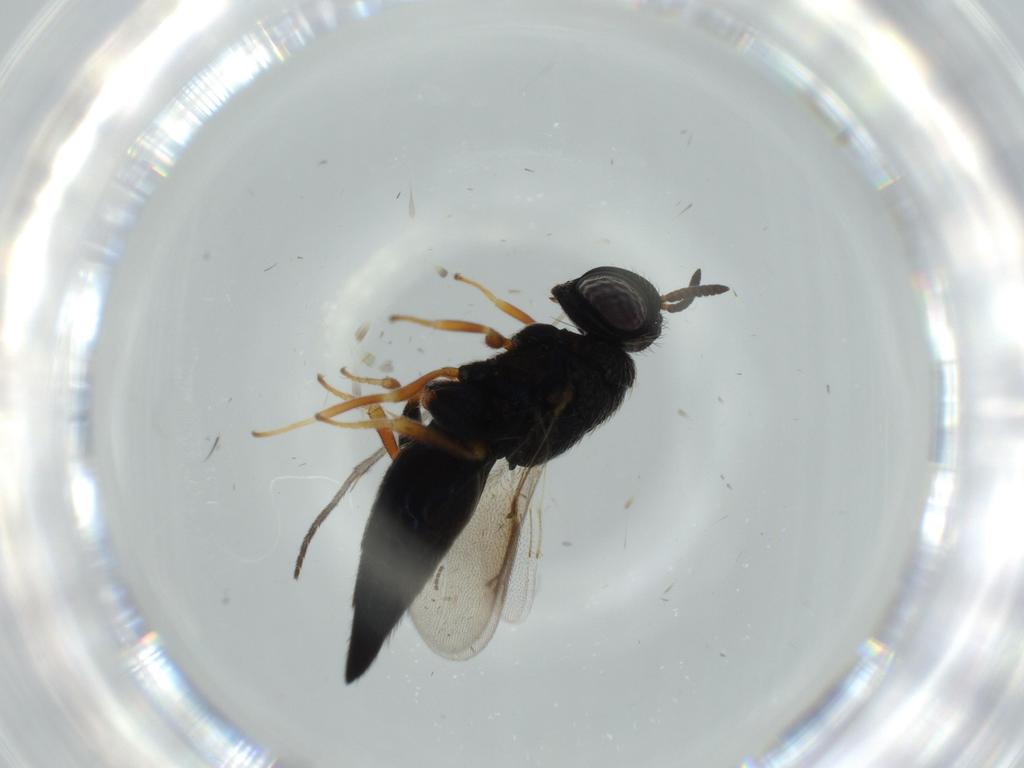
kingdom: Animalia
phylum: Arthropoda
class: Insecta
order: Hymenoptera
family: Chalcididae
